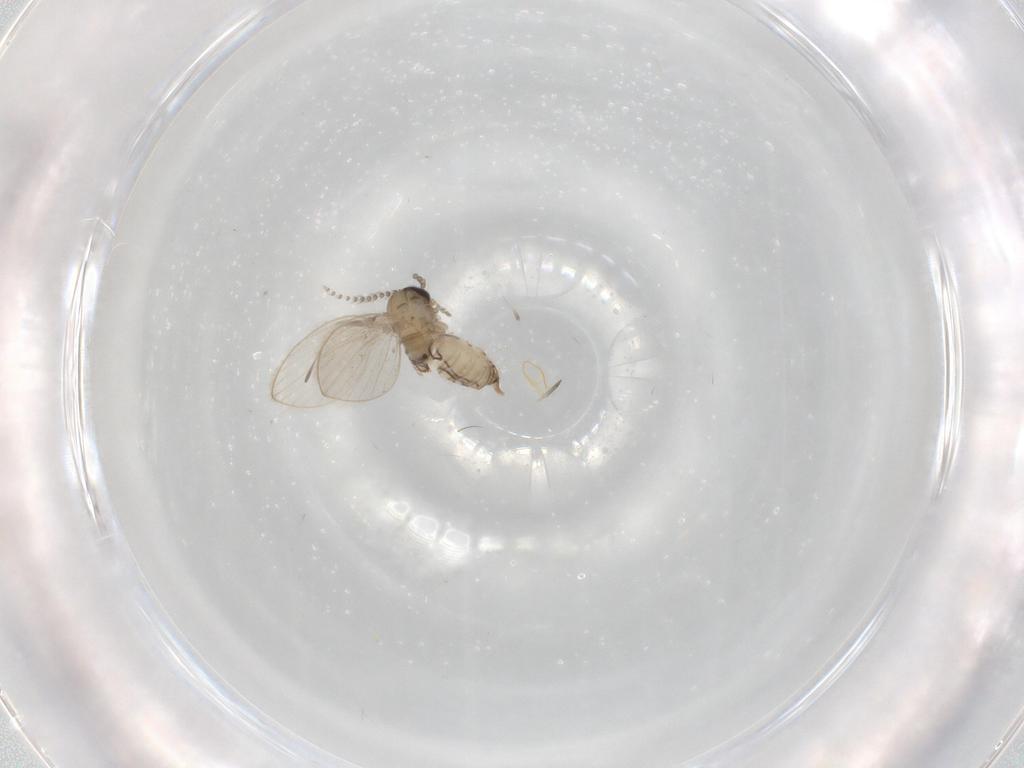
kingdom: Animalia
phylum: Arthropoda
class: Insecta
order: Diptera
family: Psychodidae
